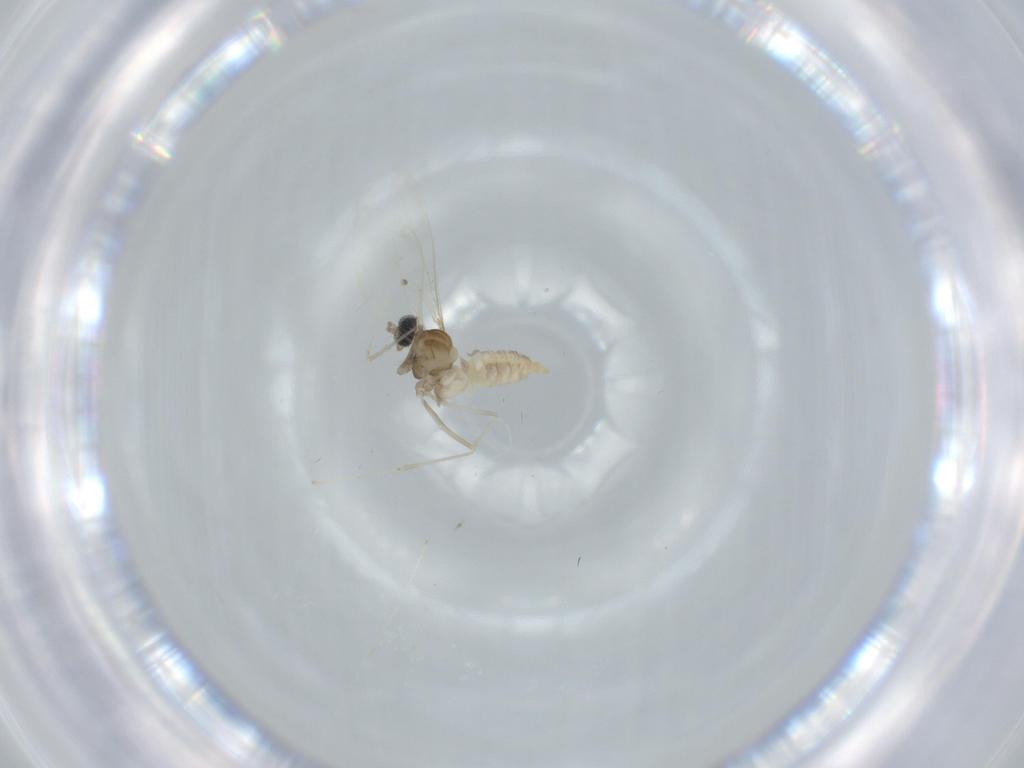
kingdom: Animalia
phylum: Arthropoda
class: Insecta
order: Diptera
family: Cecidomyiidae
